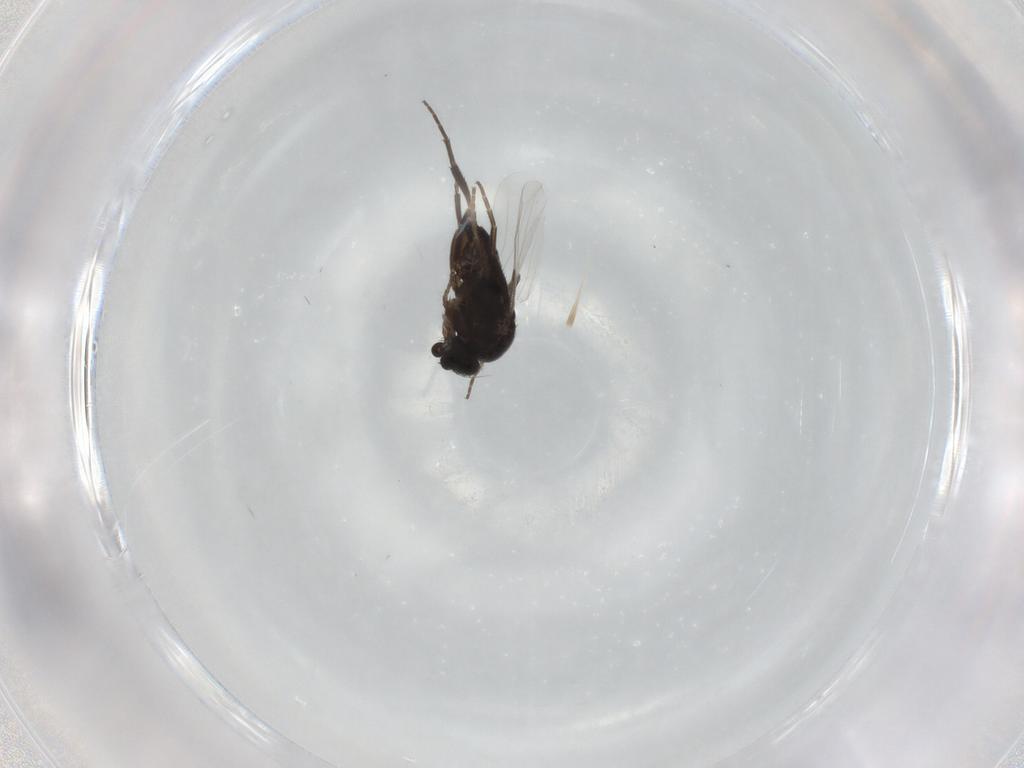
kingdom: Animalia
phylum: Arthropoda
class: Insecta
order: Diptera
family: Phoridae
